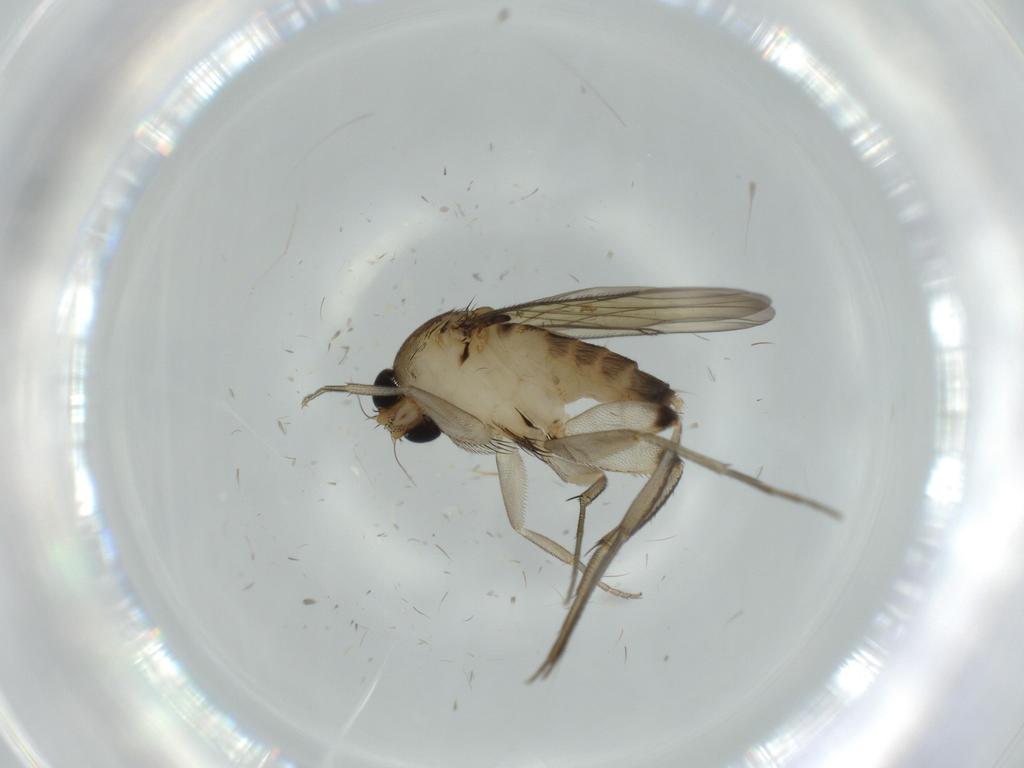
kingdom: Animalia
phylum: Arthropoda
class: Insecta
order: Diptera
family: Phoridae
